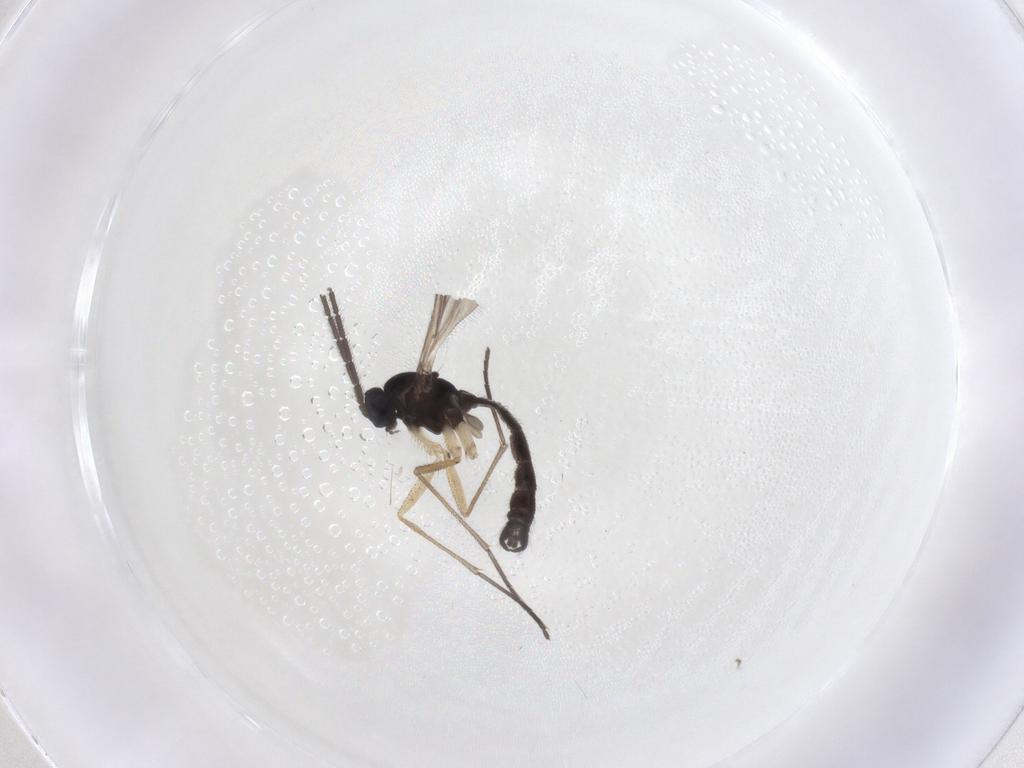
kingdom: Animalia
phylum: Arthropoda
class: Insecta
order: Diptera
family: Sciaridae
